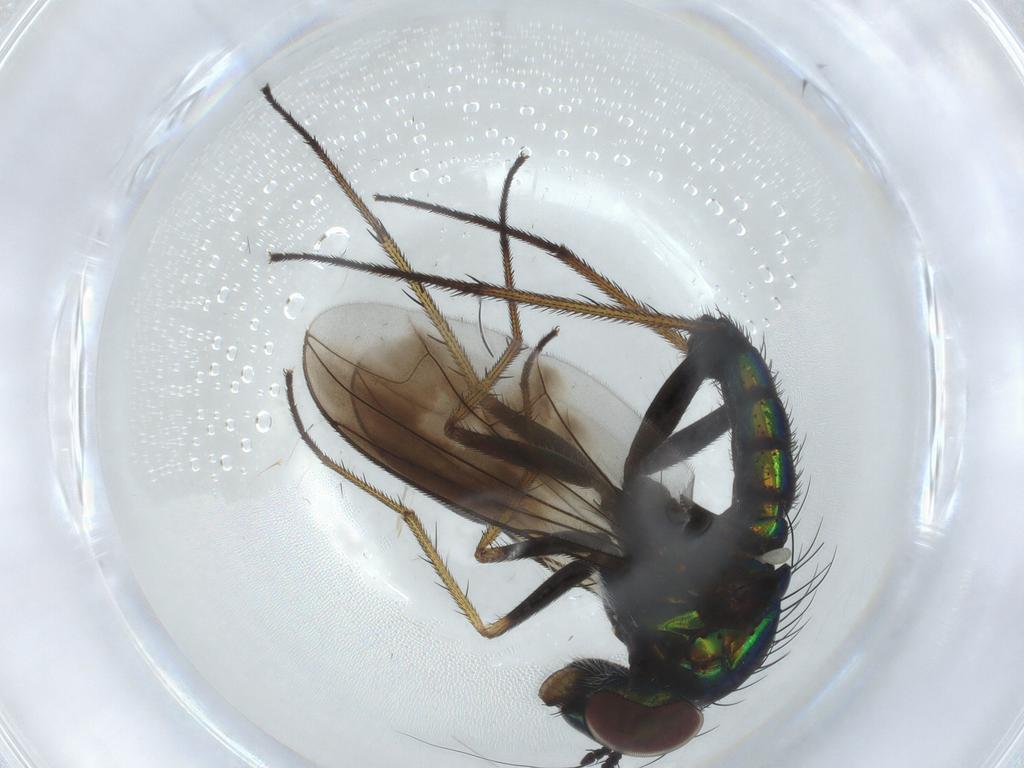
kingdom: Animalia
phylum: Arthropoda
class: Insecta
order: Diptera
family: Dolichopodidae
